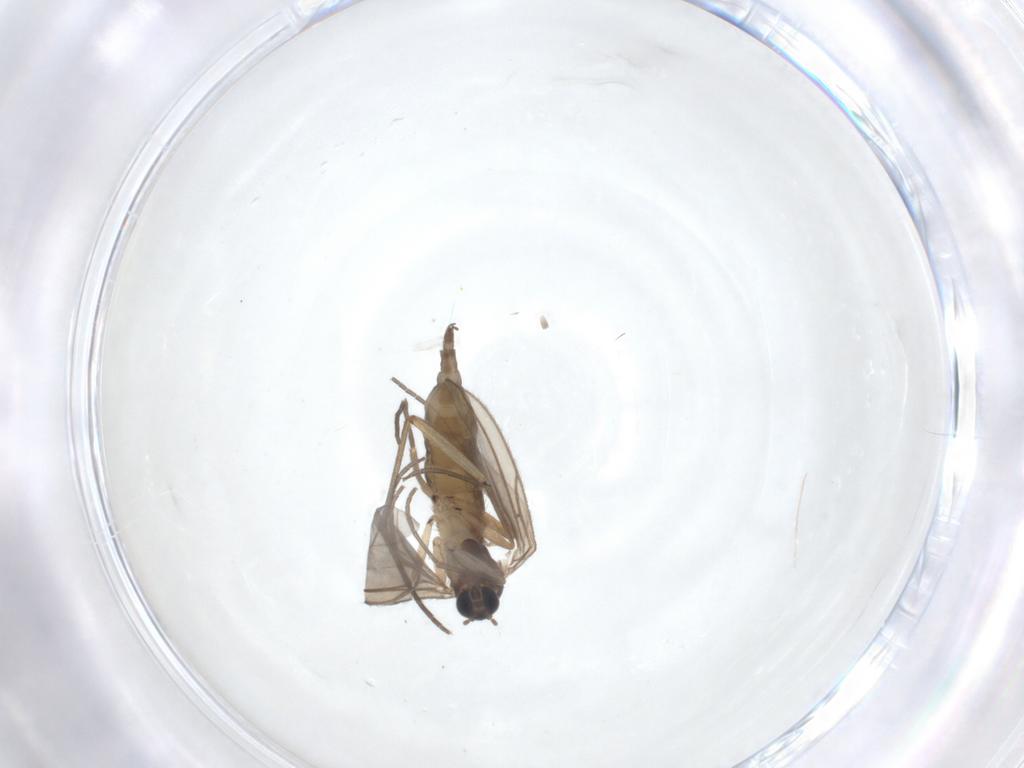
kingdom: Animalia
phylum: Arthropoda
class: Insecta
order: Diptera
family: Sciaridae
